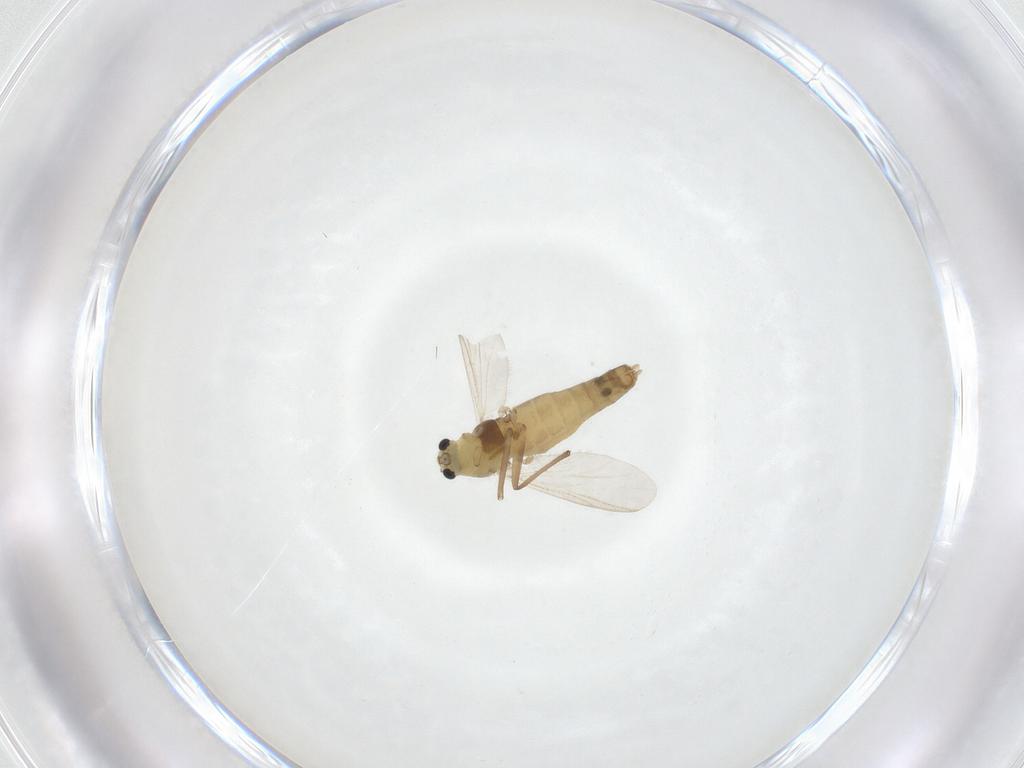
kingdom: Animalia
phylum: Arthropoda
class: Insecta
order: Diptera
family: Chironomidae
